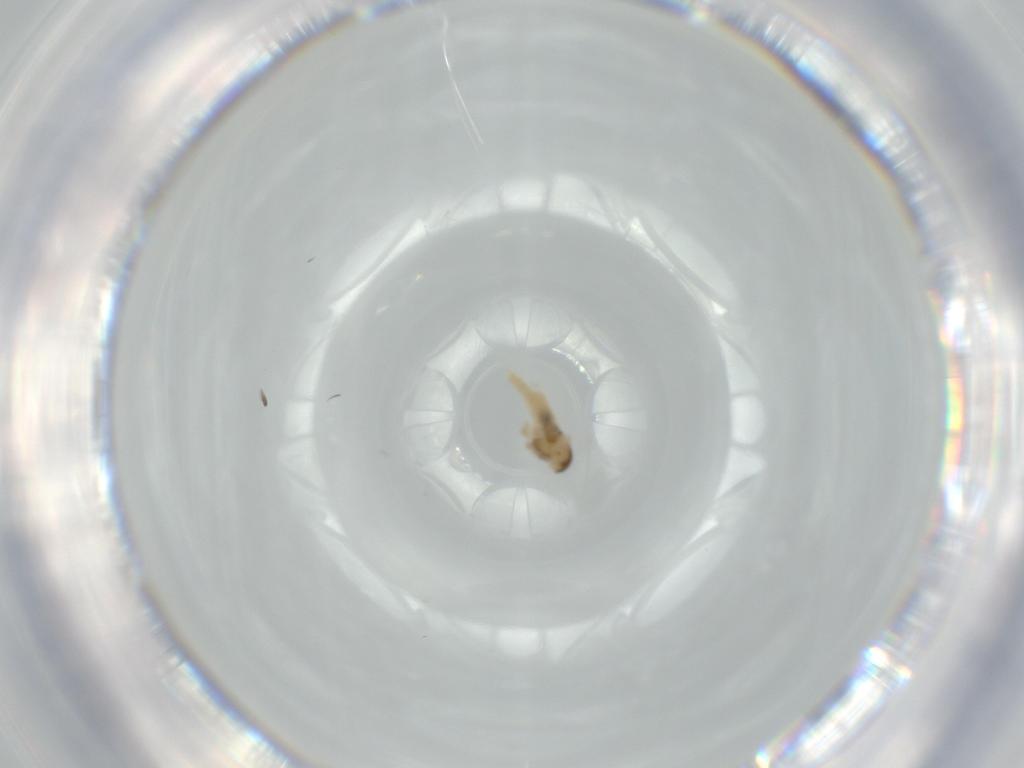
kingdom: Animalia
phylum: Arthropoda
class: Insecta
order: Diptera
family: Muscidae
